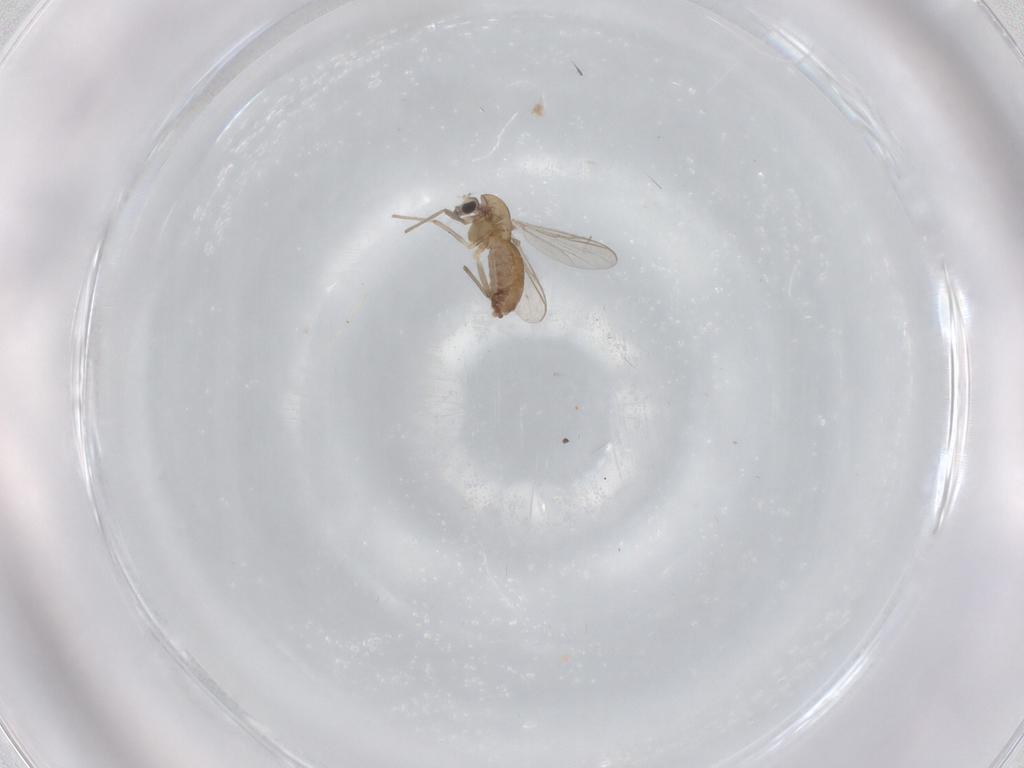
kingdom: Animalia
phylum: Arthropoda
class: Insecta
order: Diptera
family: Chironomidae
